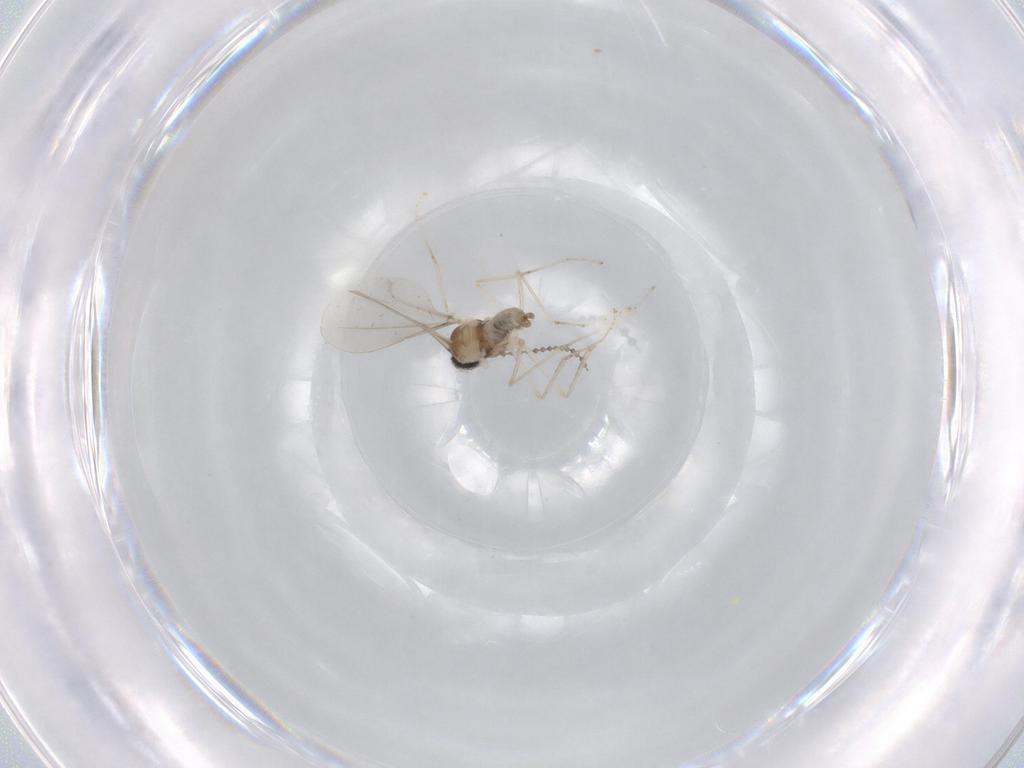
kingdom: Animalia
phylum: Arthropoda
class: Insecta
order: Diptera
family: Cecidomyiidae
